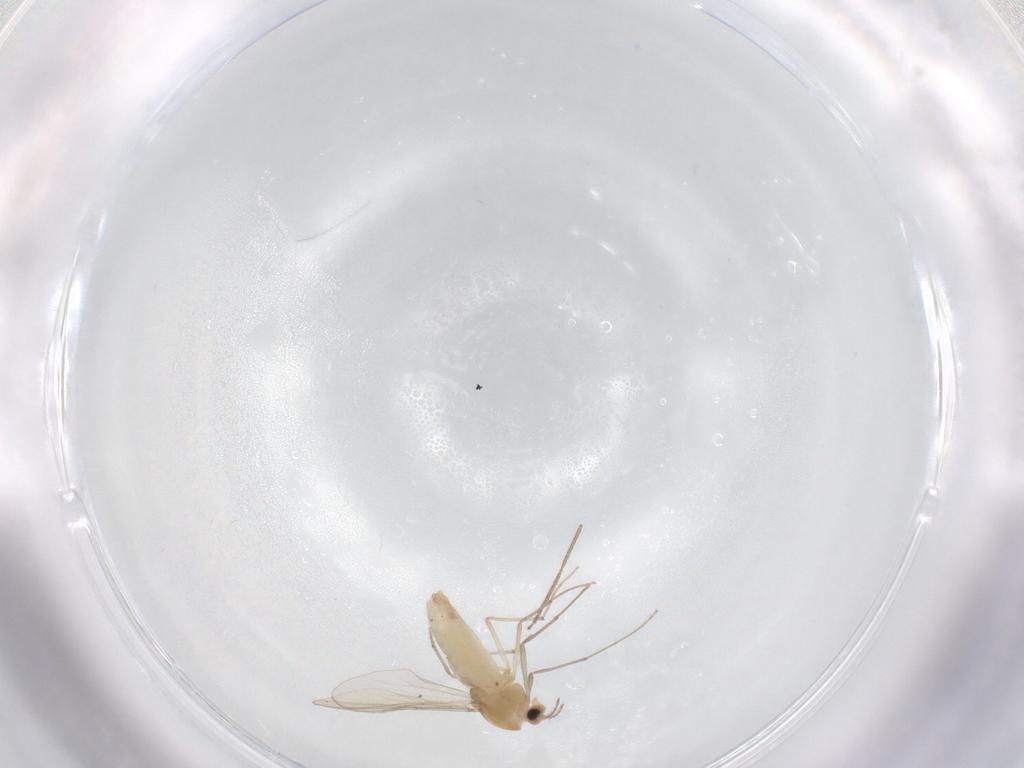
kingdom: Animalia
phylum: Arthropoda
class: Insecta
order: Diptera
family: Chironomidae
